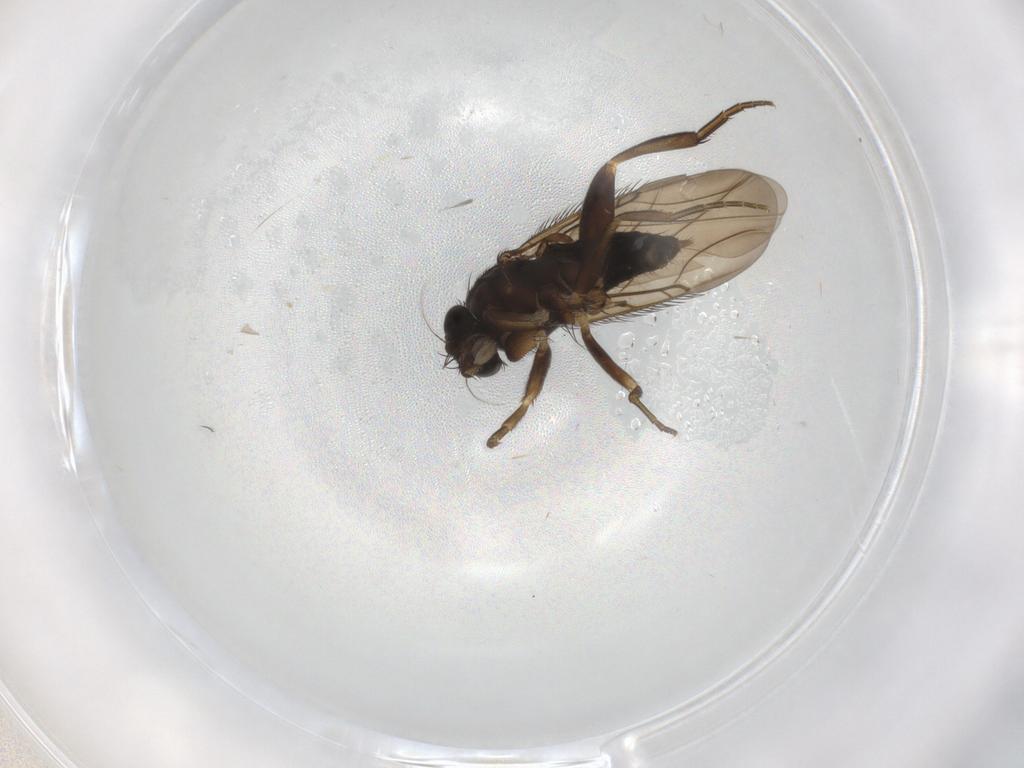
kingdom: Animalia
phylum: Arthropoda
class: Insecta
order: Diptera
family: Phoridae
